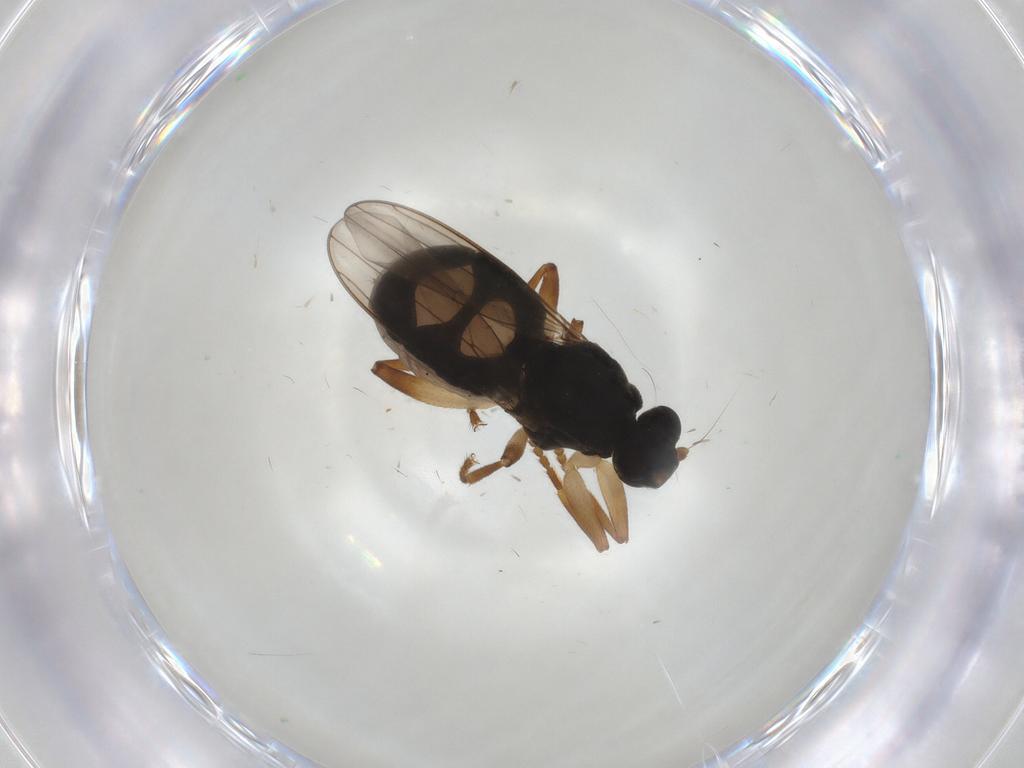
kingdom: Animalia
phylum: Arthropoda
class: Insecta
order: Diptera
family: Sphaeroceridae
